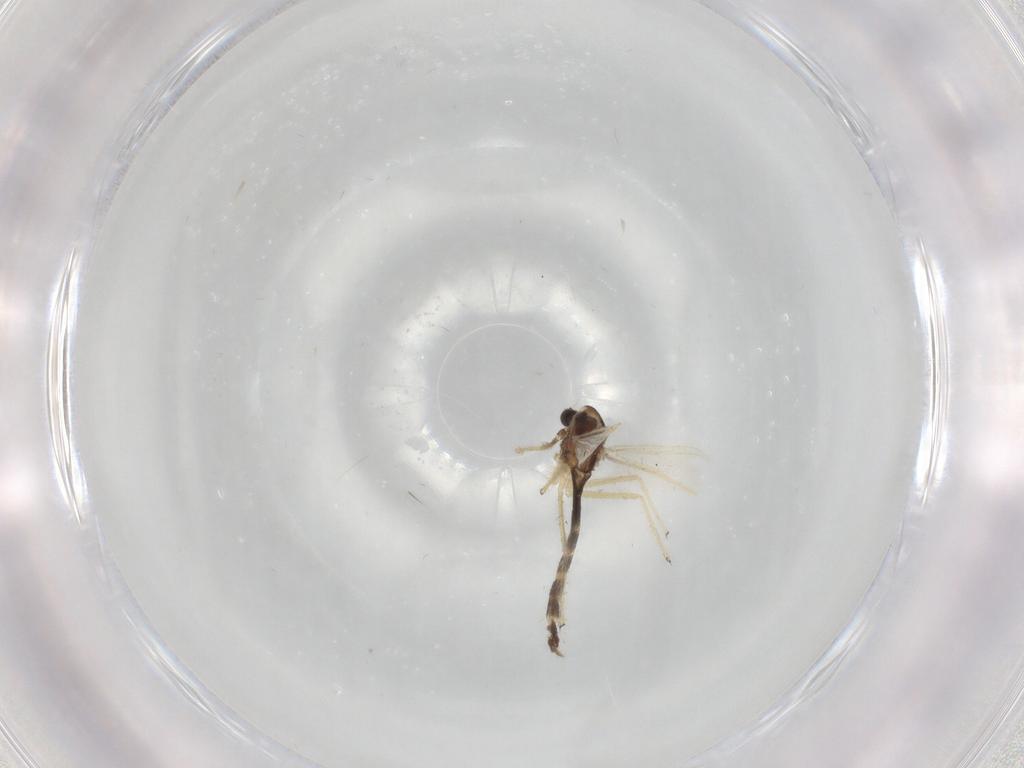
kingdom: Animalia
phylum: Arthropoda
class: Insecta
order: Diptera
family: Chironomidae
